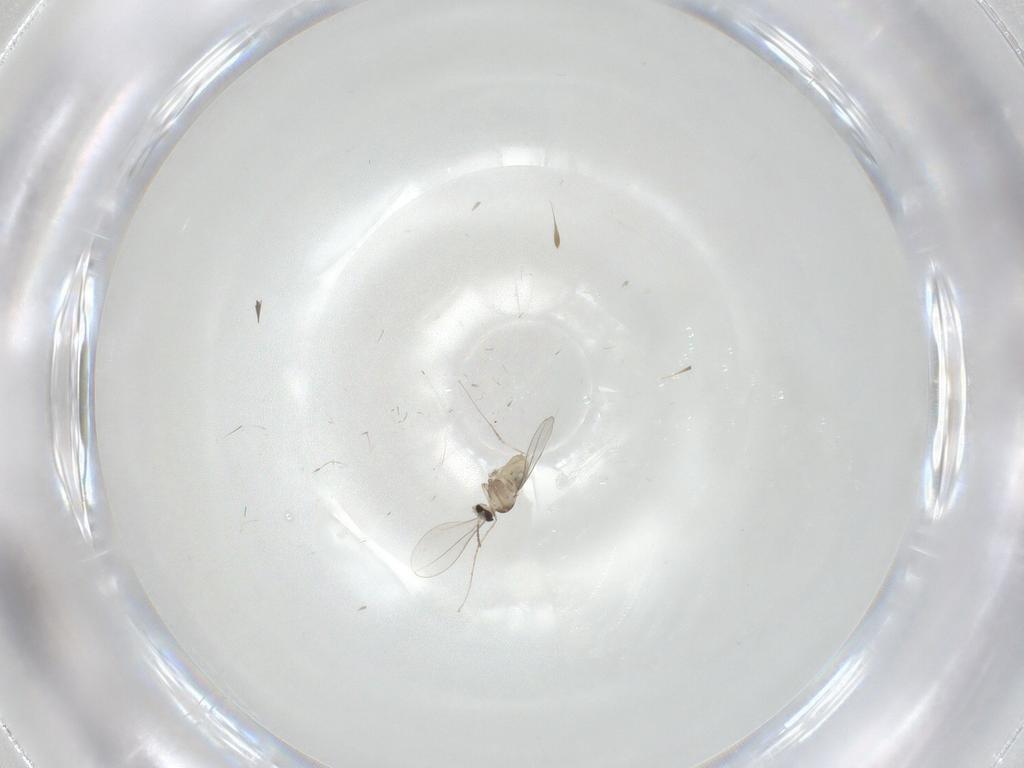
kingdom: Animalia
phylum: Arthropoda
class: Insecta
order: Diptera
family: Cecidomyiidae
